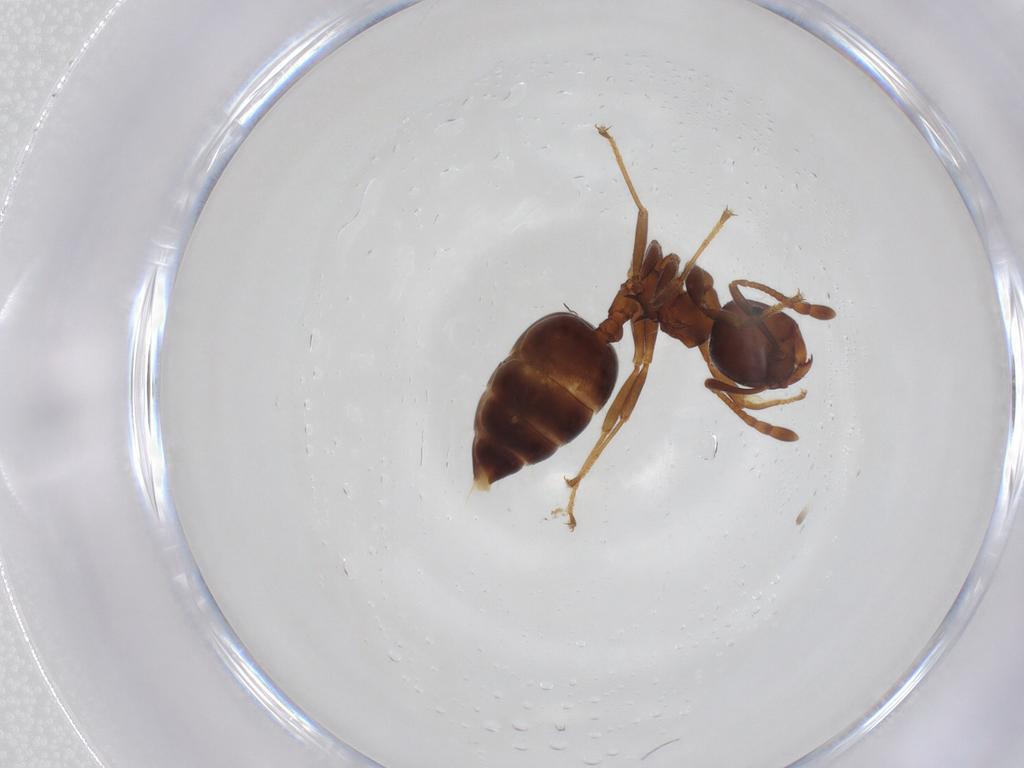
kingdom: Animalia
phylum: Arthropoda
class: Insecta
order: Hymenoptera
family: Formicidae
